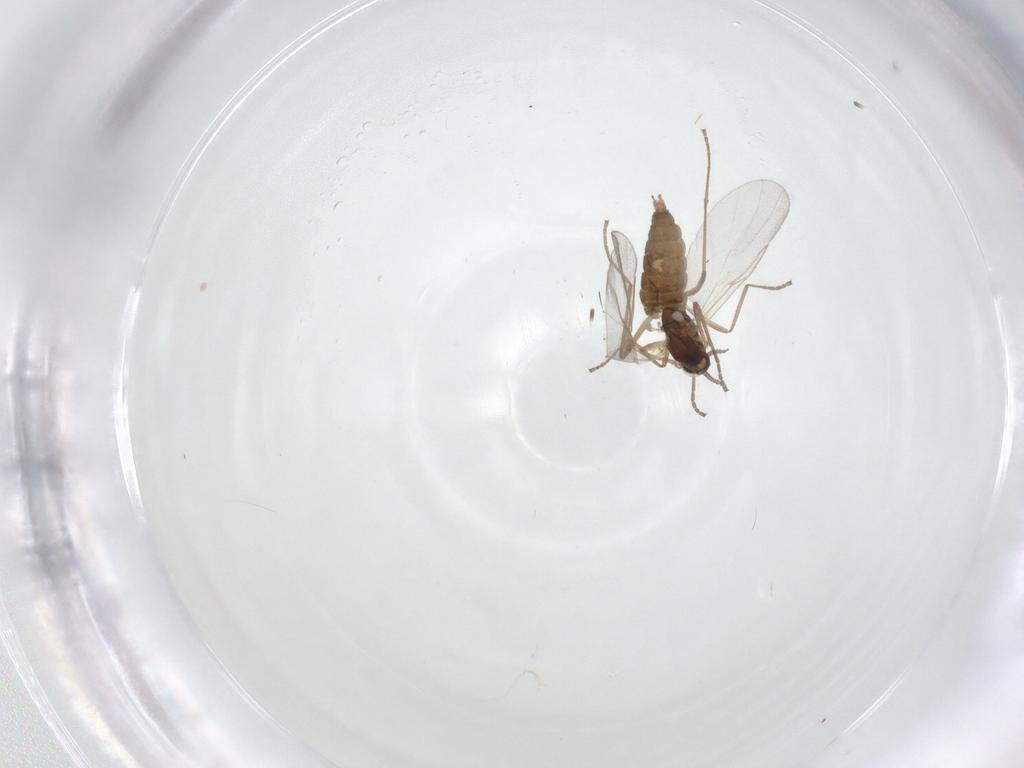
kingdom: Animalia
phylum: Arthropoda
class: Insecta
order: Diptera
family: Cecidomyiidae
